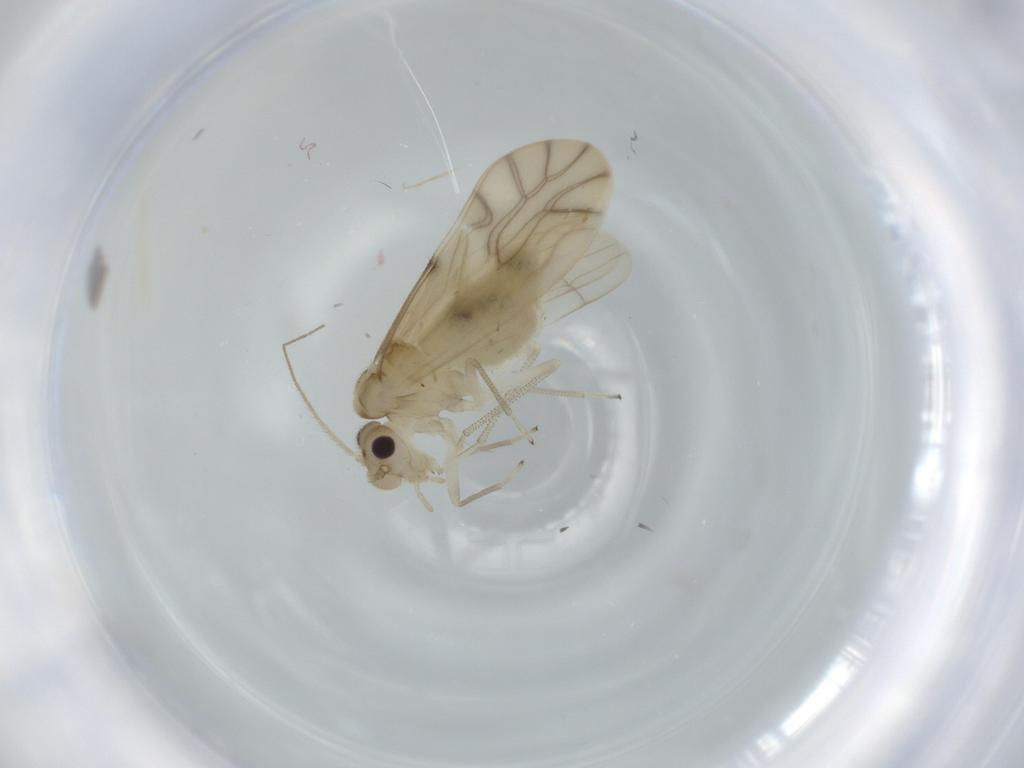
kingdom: Animalia
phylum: Arthropoda
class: Insecta
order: Psocodea
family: Caeciliusidae
